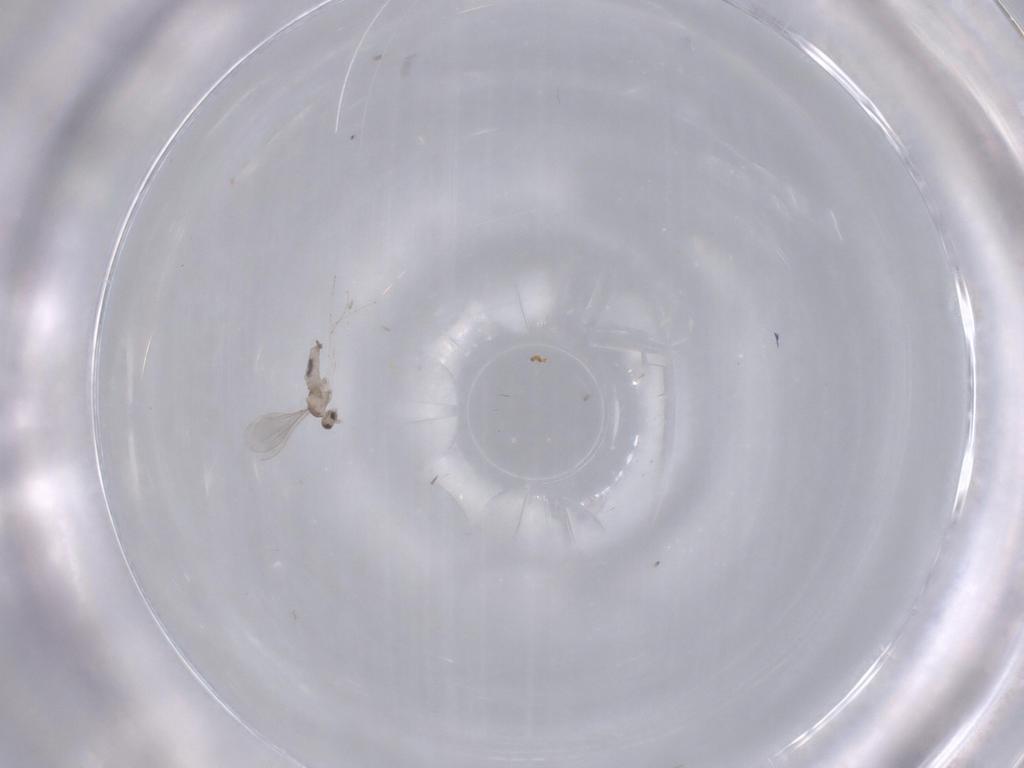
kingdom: Animalia
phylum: Arthropoda
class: Insecta
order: Diptera
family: Cecidomyiidae
